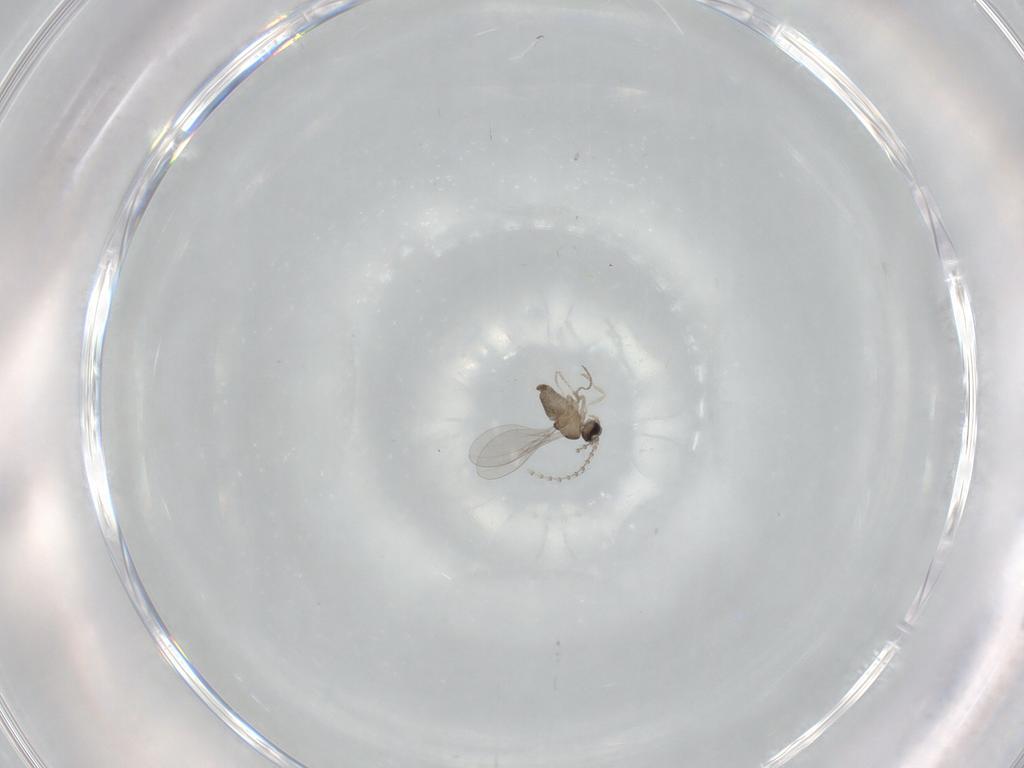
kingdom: Animalia
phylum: Arthropoda
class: Insecta
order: Diptera
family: Cecidomyiidae
